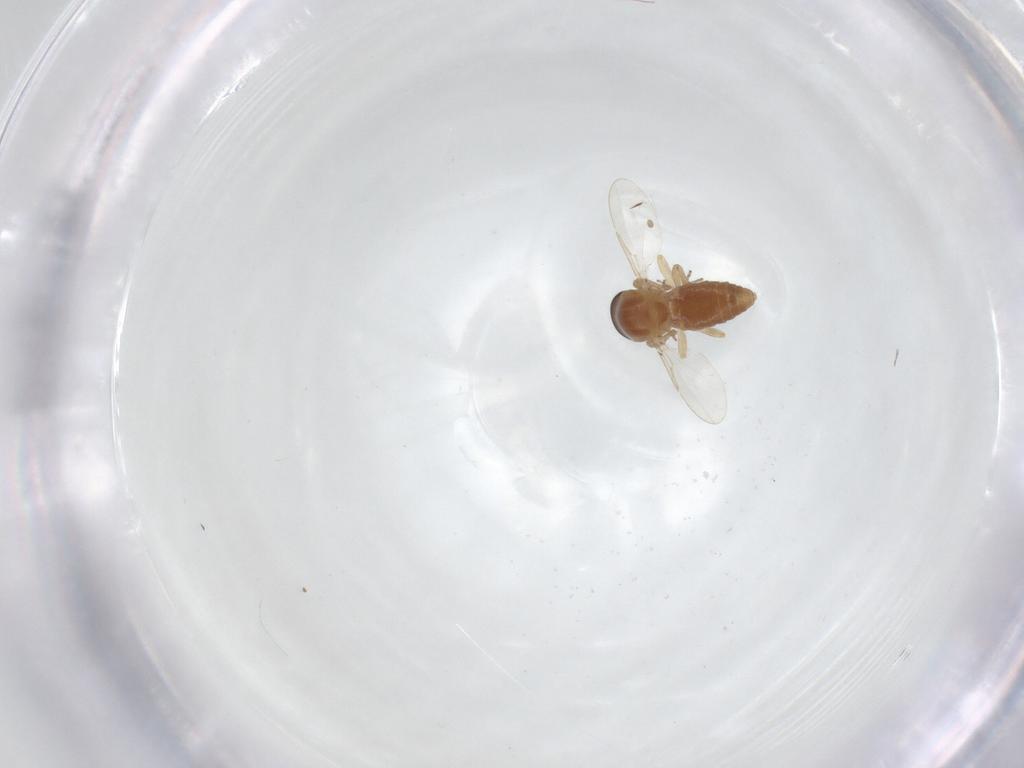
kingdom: Animalia
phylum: Arthropoda
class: Insecta
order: Diptera
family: Ceratopogonidae
